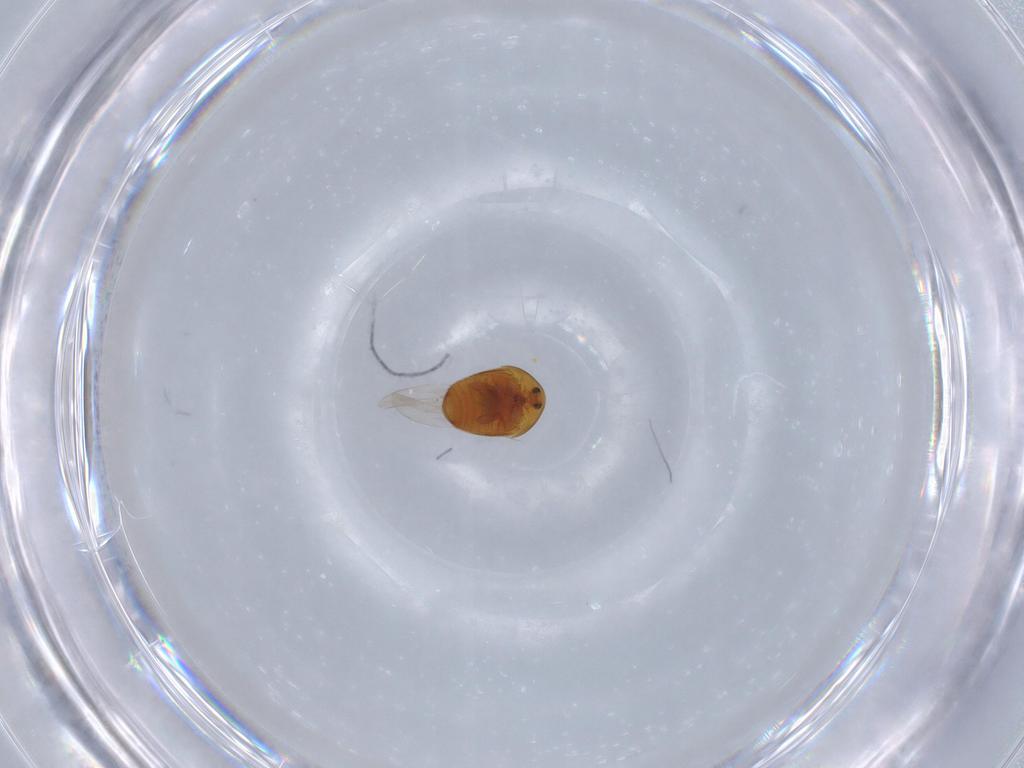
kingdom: Animalia
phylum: Arthropoda
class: Insecta
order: Coleoptera
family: Corylophidae
